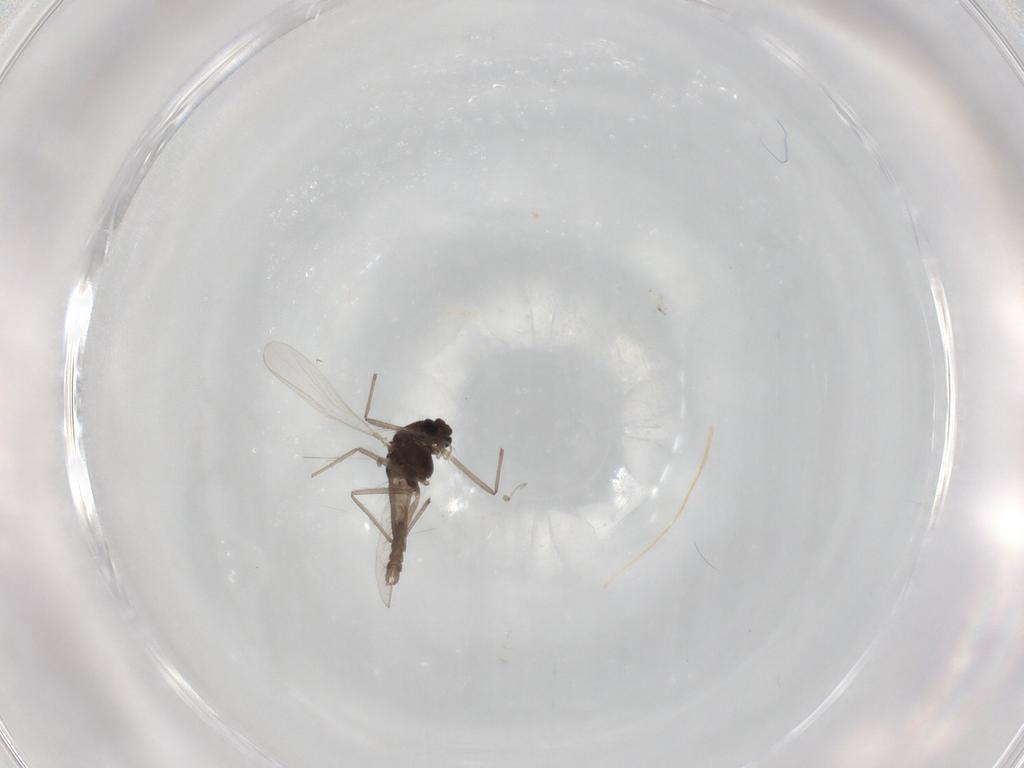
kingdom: Animalia
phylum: Arthropoda
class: Insecta
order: Diptera
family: Chironomidae
